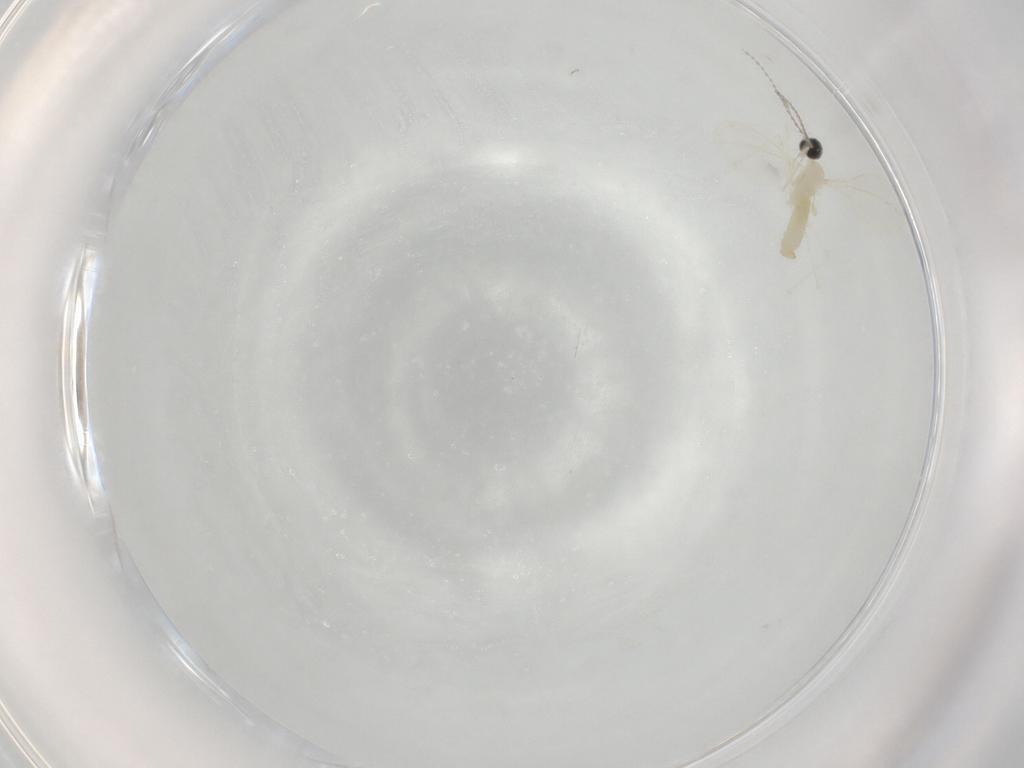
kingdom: Animalia
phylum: Arthropoda
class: Insecta
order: Diptera
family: Cecidomyiidae
